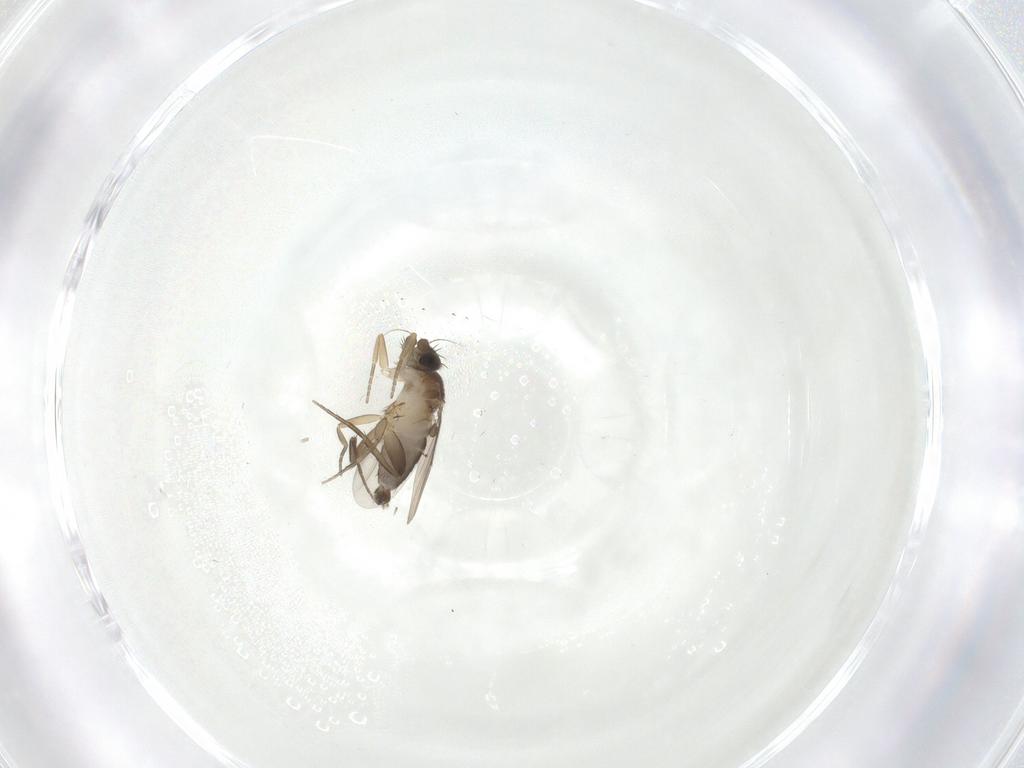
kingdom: Animalia
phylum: Arthropoda
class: Insecta
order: Diptera
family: Phoridae
